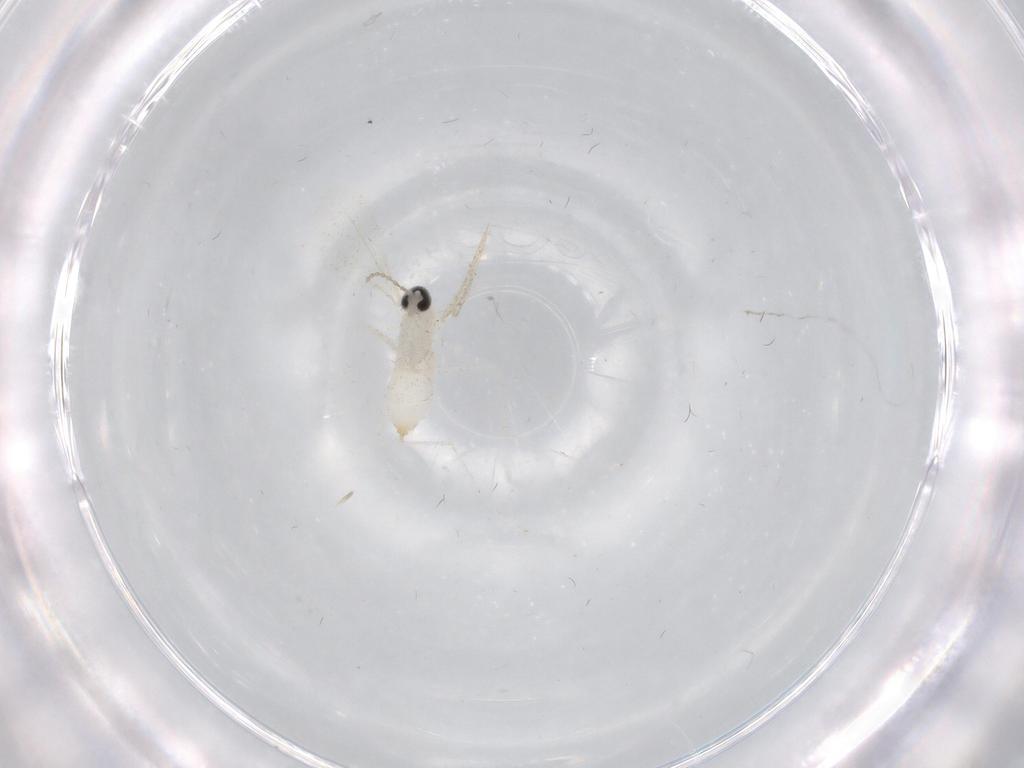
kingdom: Animalia
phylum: Arthropoda
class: Insecta
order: Diptera
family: Cecidomyiidae
